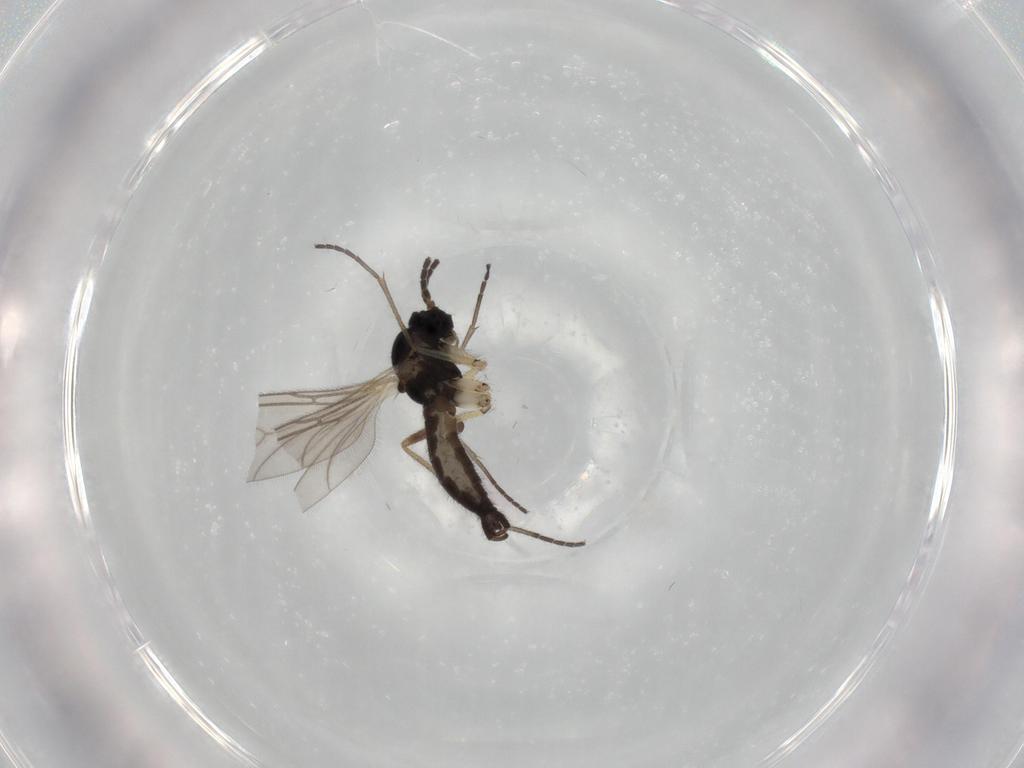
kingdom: Animalia
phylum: Arthropoda
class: Insecta
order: Diptera
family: Sciaridae
